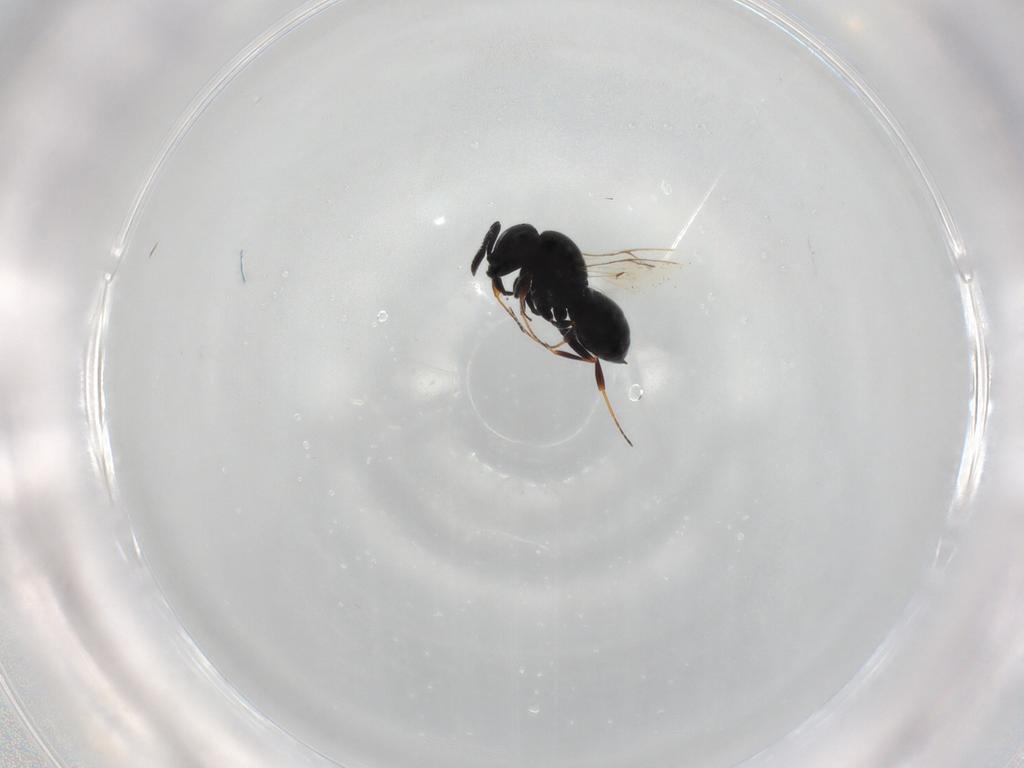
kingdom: Animalia
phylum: Arthropoda
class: Insecta
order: Hymenoptera
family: Scelionidae
